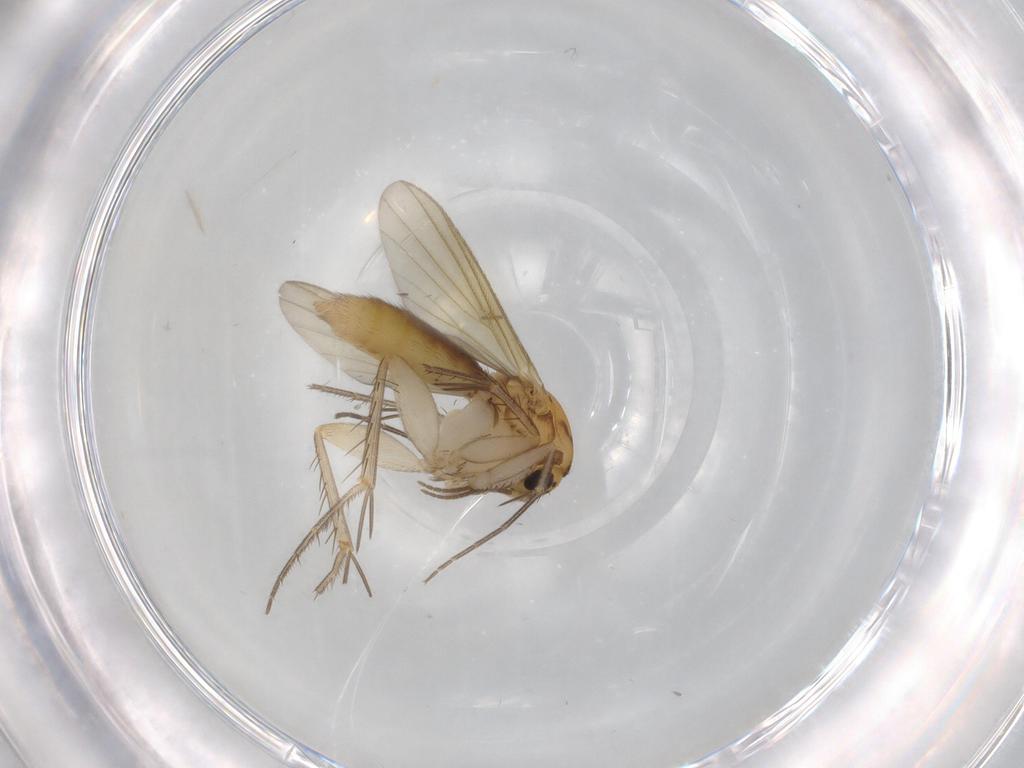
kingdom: Animalia
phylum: Arthropoda
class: Insecta
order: Diptera
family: Mycetophilidae
